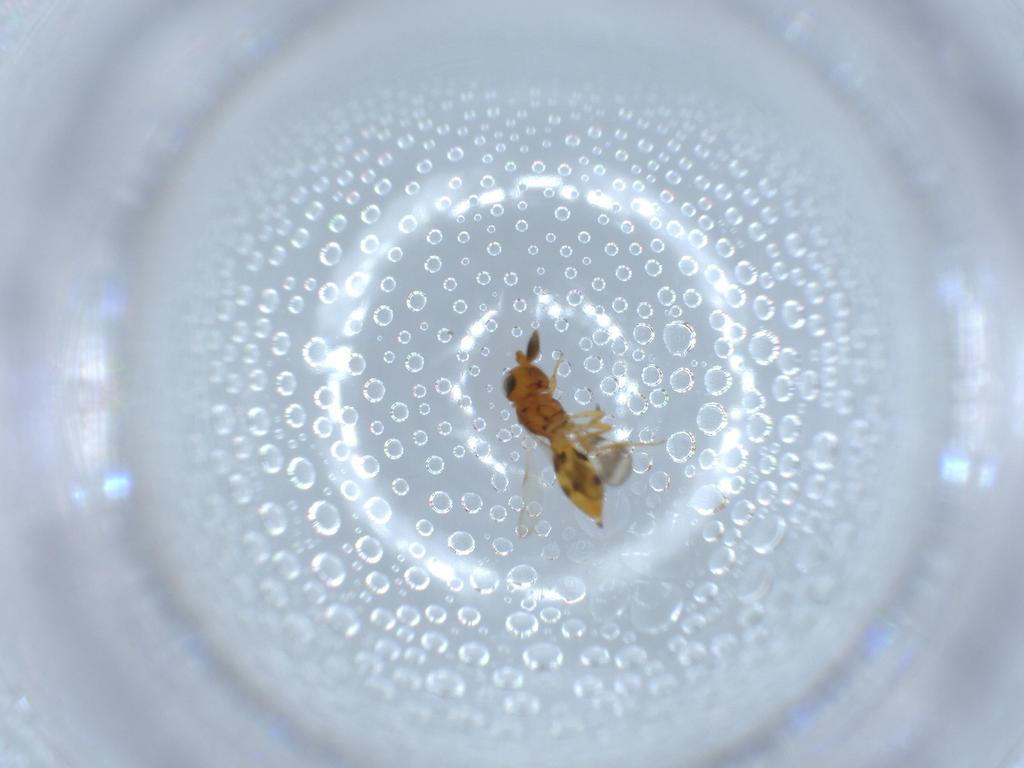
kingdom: Animalia
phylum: Arthropoda
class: Insecta
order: Hymenoptera
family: Scelionidae
